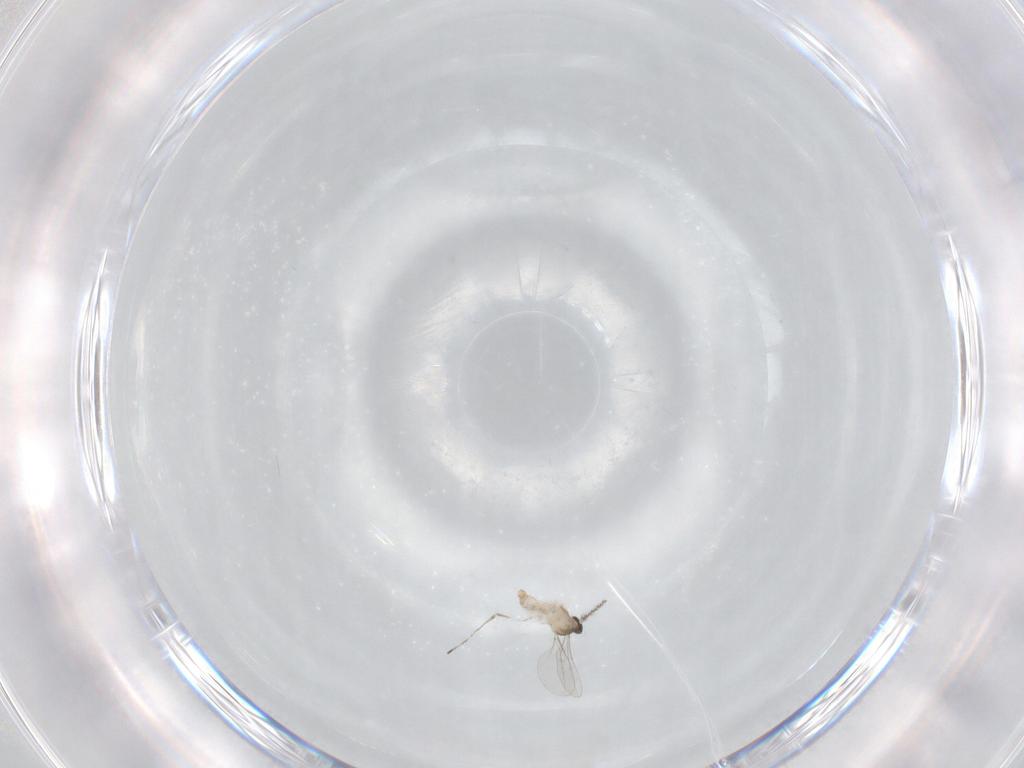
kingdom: Animalia
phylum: Arthropoda
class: Insecta
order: Diptera
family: Cecidomyiidae
